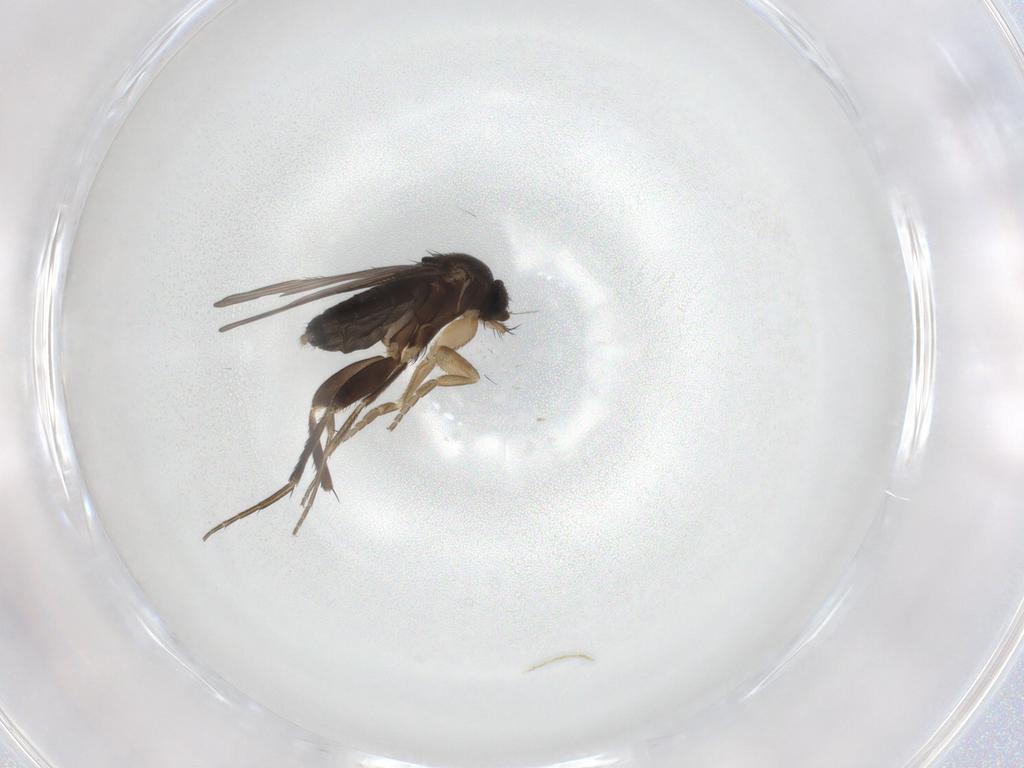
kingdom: Animalia
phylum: Arthropoda
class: Insecta
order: Diptera
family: Phoridae
